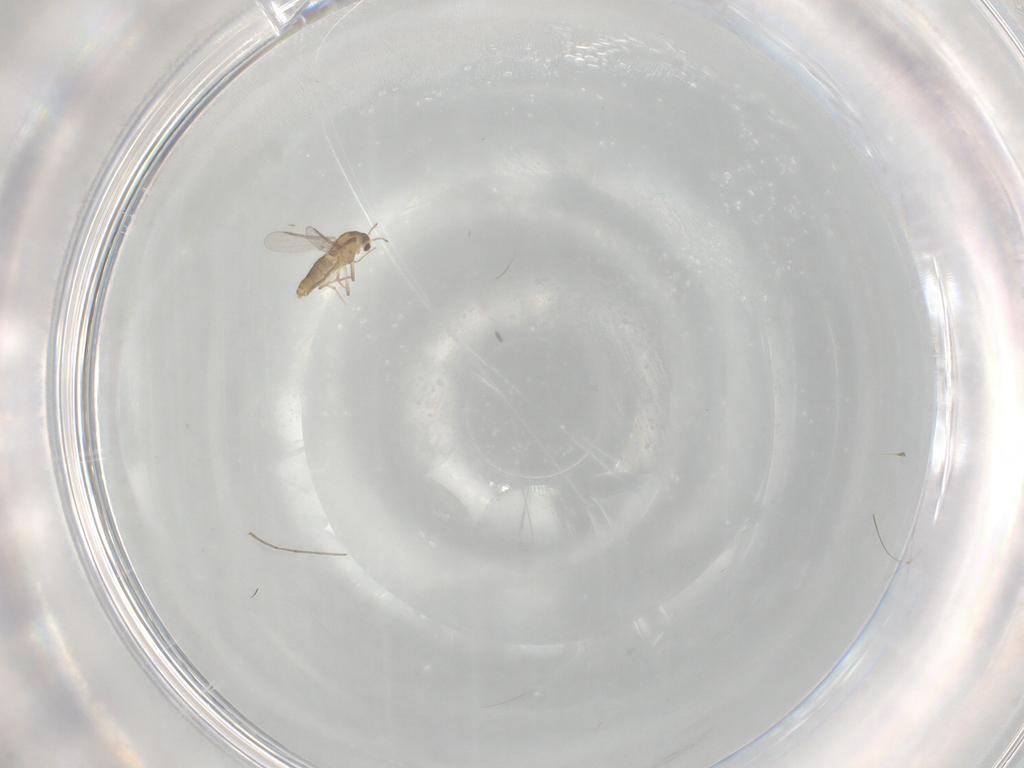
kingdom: Animalia
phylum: Arthropoda
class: Insecta
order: Diptera
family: Chironomidae
